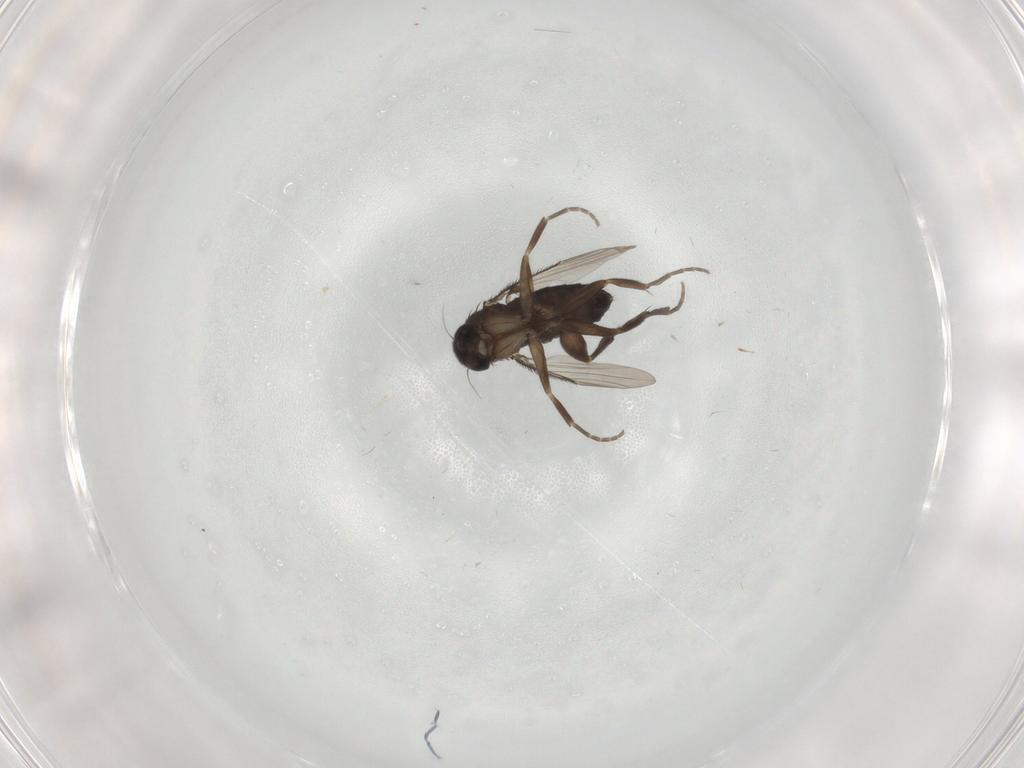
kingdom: Animalia
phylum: Arthropoda
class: Insecta
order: Diptera
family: Phoridae
